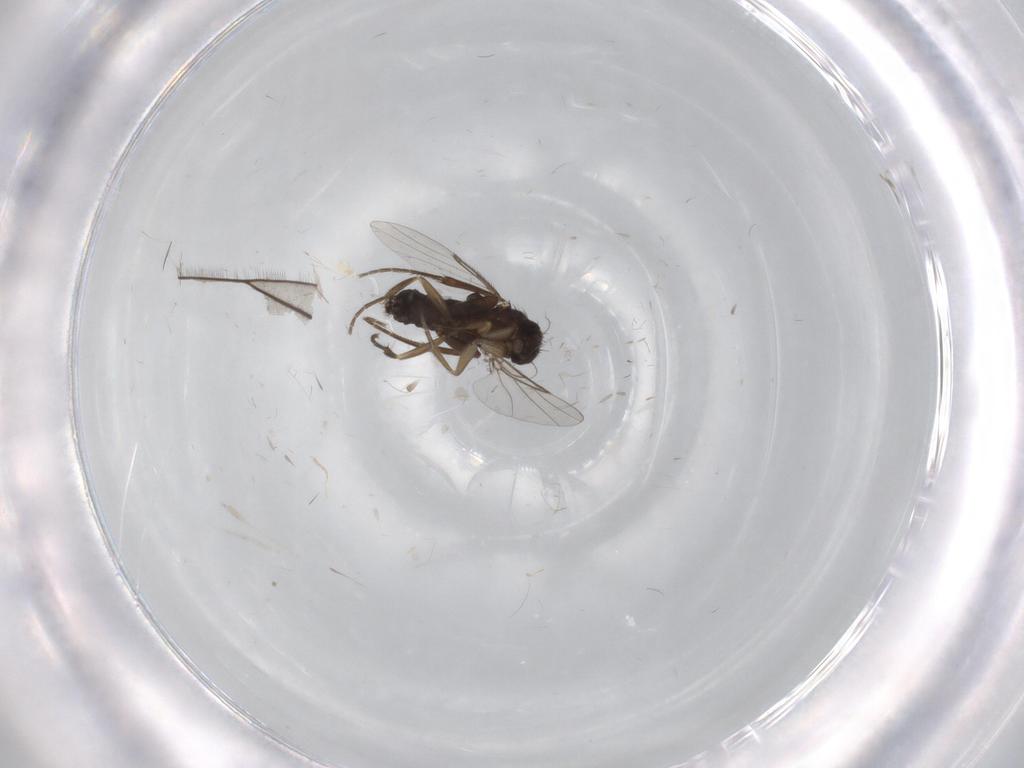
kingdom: Animalia
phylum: Arthropoda
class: Insecta
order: Diptera
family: Phoridae
